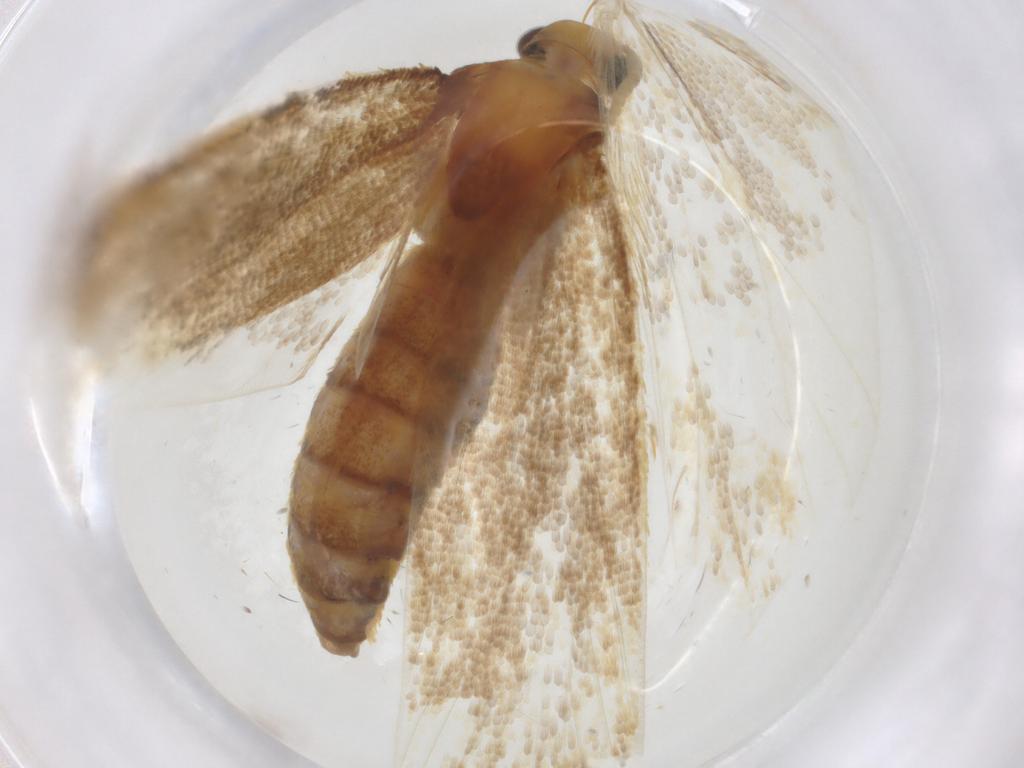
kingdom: Animalia
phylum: Arthropoda
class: Insecta
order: Lepidoptera
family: Lecithoceridae
